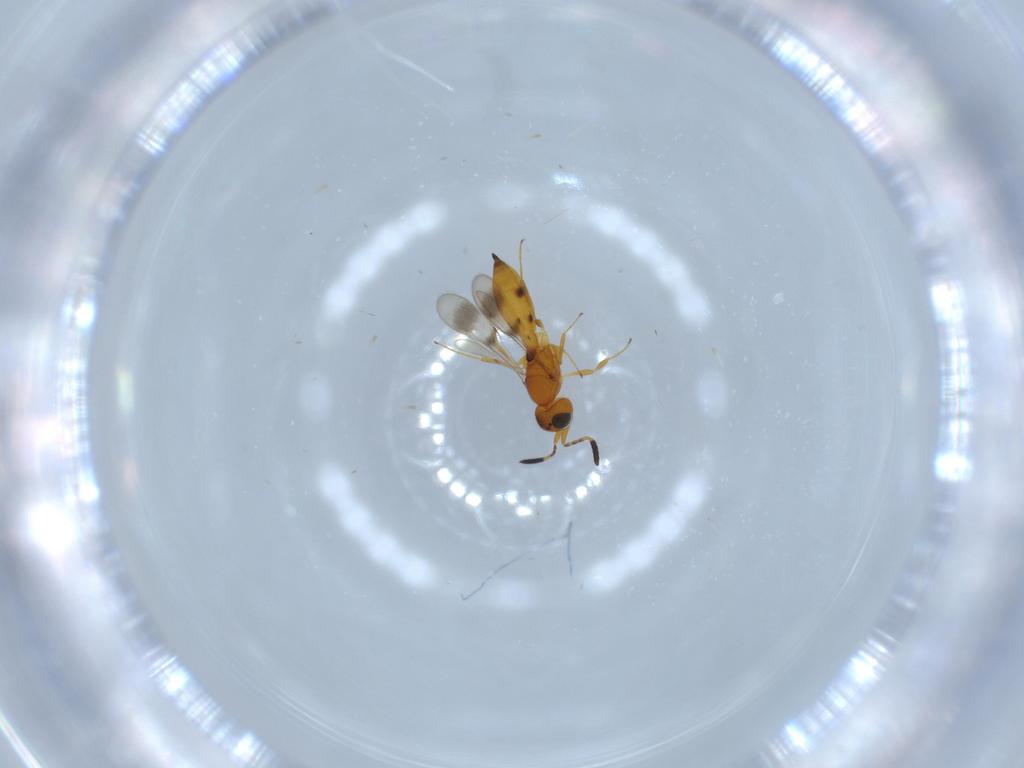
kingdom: Animalia
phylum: Arthropoda
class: Insecta
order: Hymenoptera
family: Scelionidae
